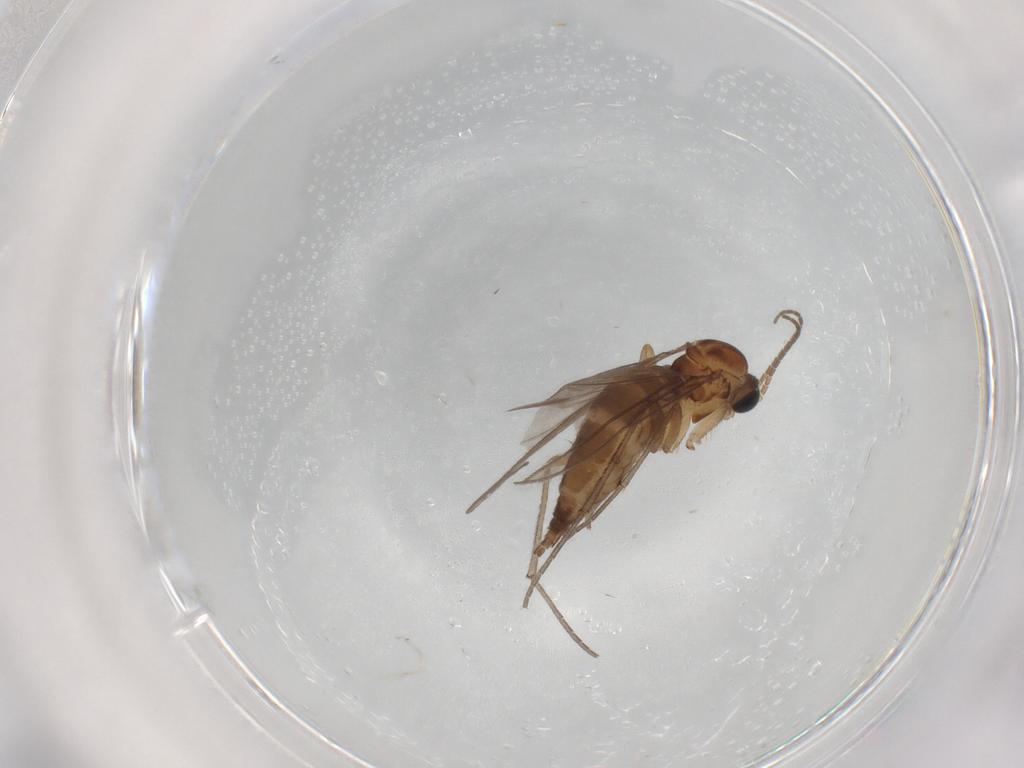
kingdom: Animalia
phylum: Arthropoda
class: Insecta
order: Diptera
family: Sciaridae
